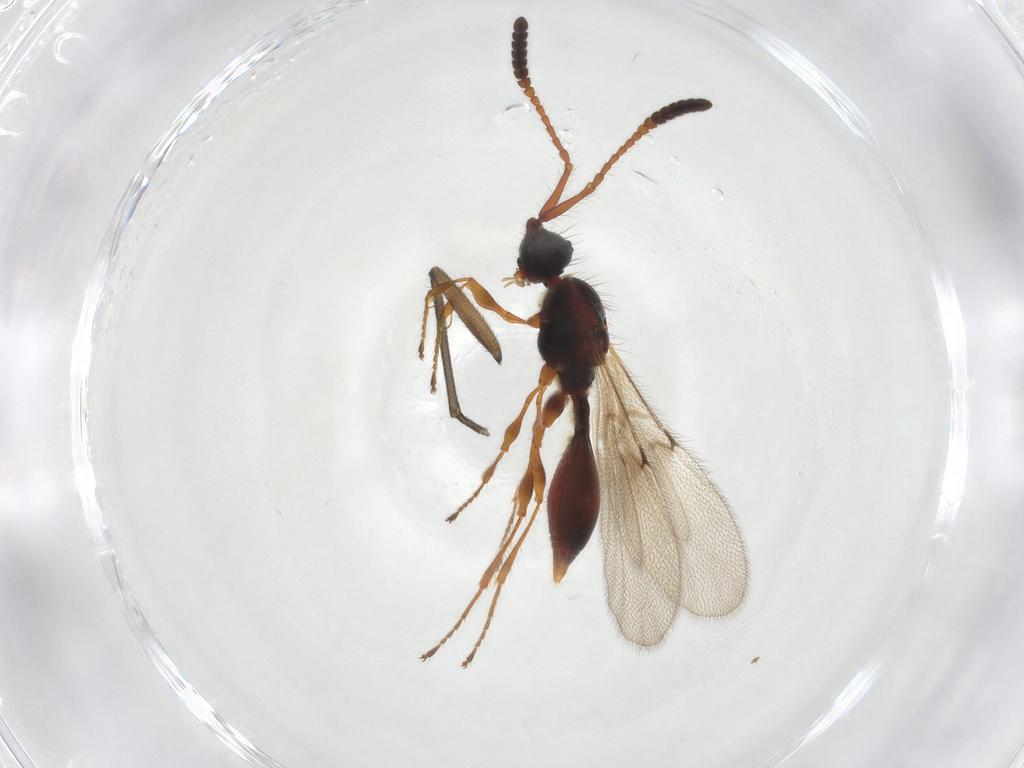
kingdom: Animalia
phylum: Arthropoda
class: Insecta
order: Hymenoptera
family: Diapriidae
